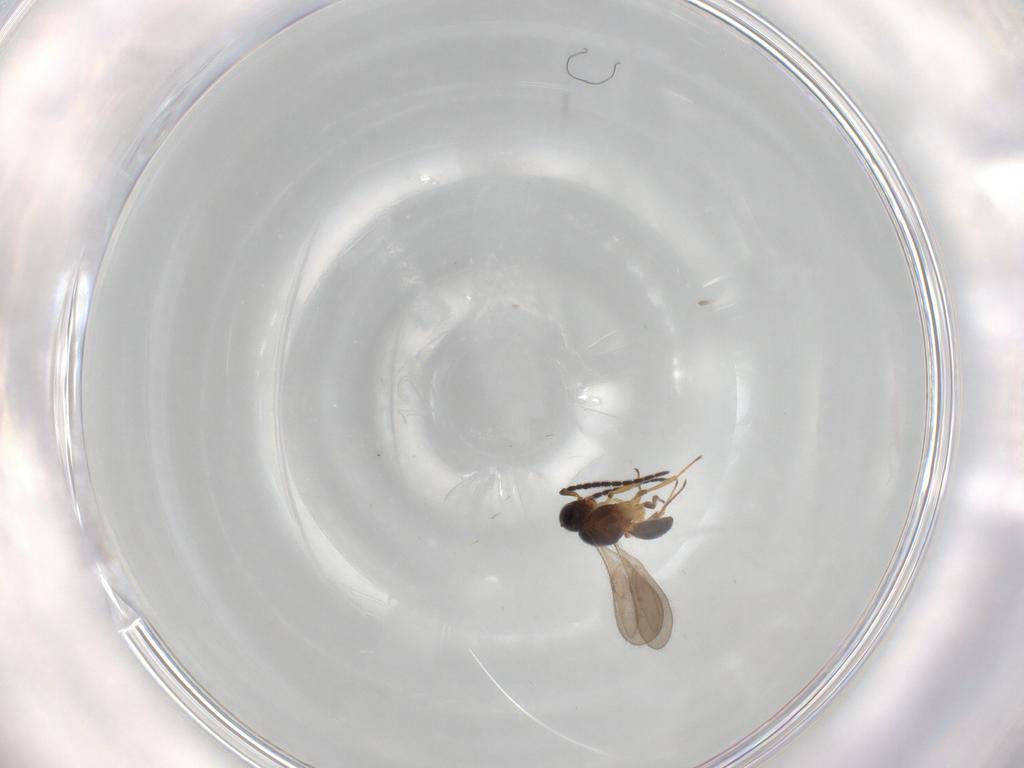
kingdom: Animalia
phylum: Arthropoda
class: Insecta
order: Hymenoptera
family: Scelionidae
